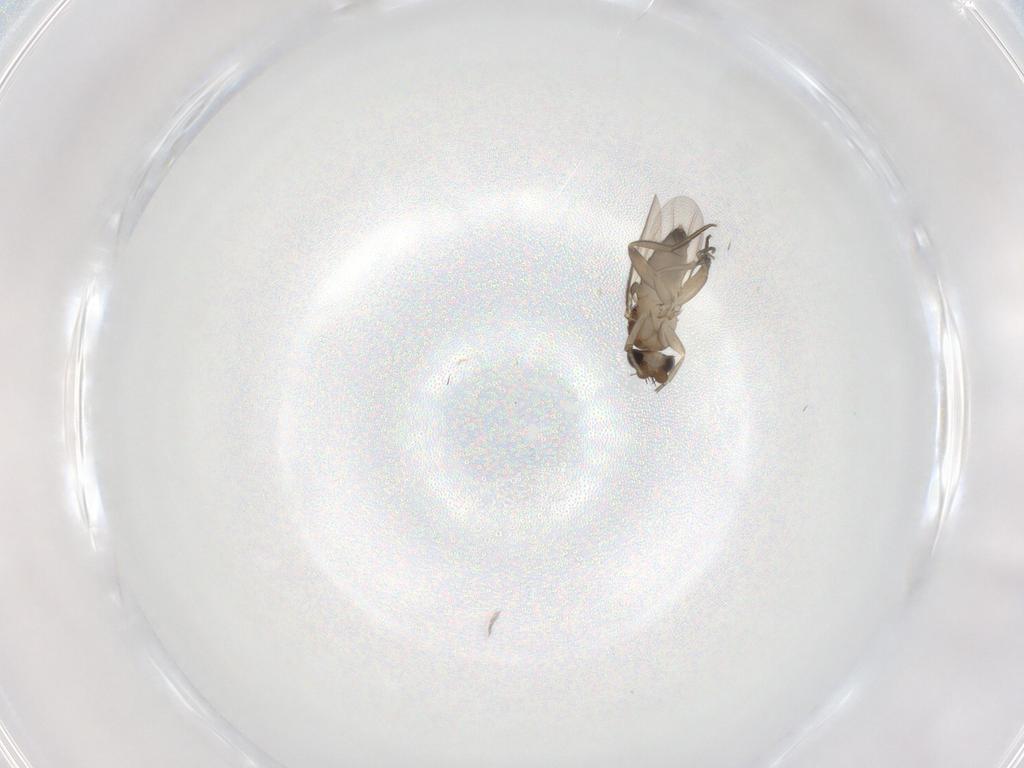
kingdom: Animalia
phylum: Arthropoda
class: Insecta
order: Diptera
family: Phoridae
